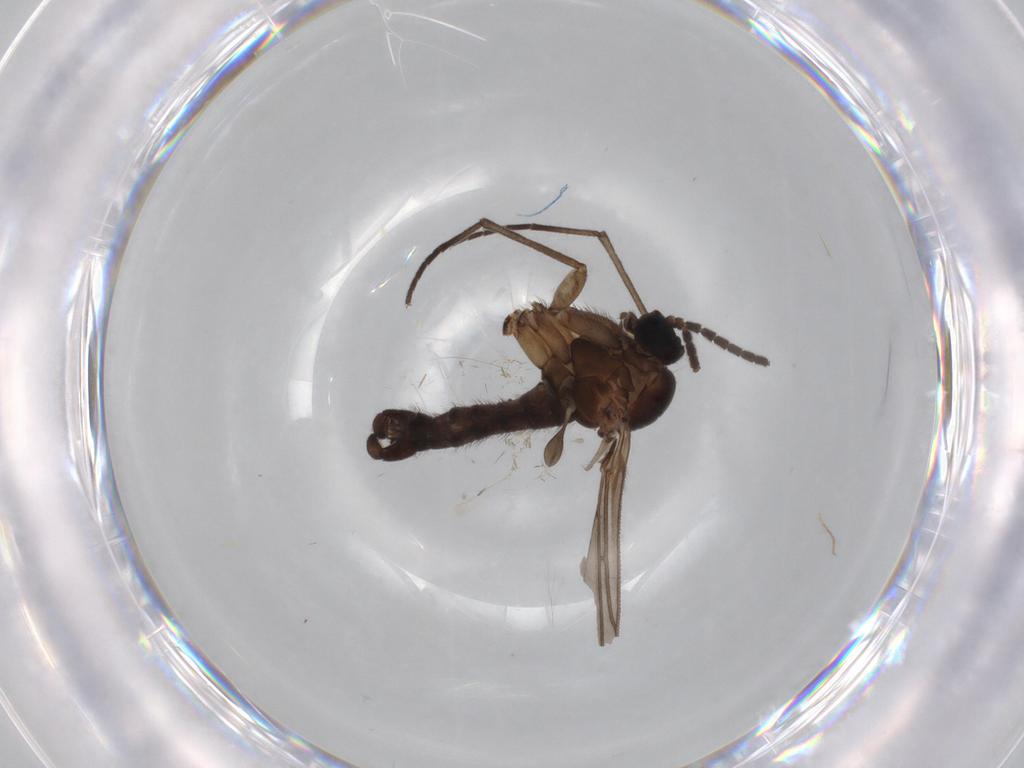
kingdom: Animalia
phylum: Arthropoda
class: Insecta
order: Diptera
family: Sciaridae
